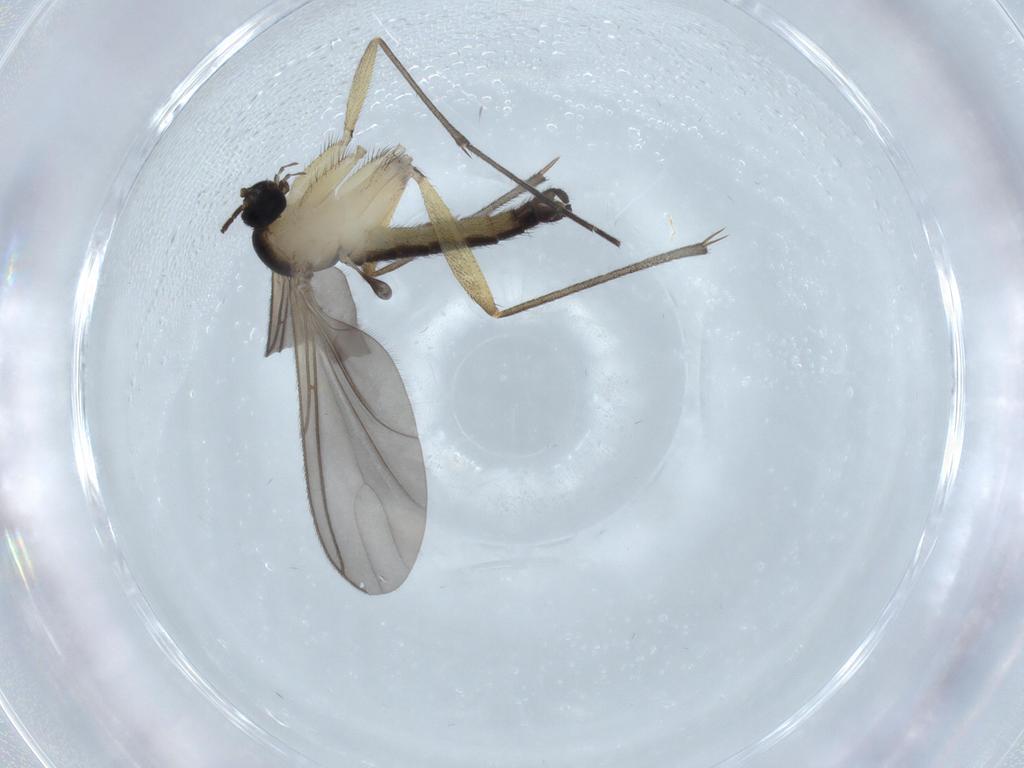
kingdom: Animalia
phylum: Arthropoda
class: Insecta
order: Diptera
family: Sciaridae
